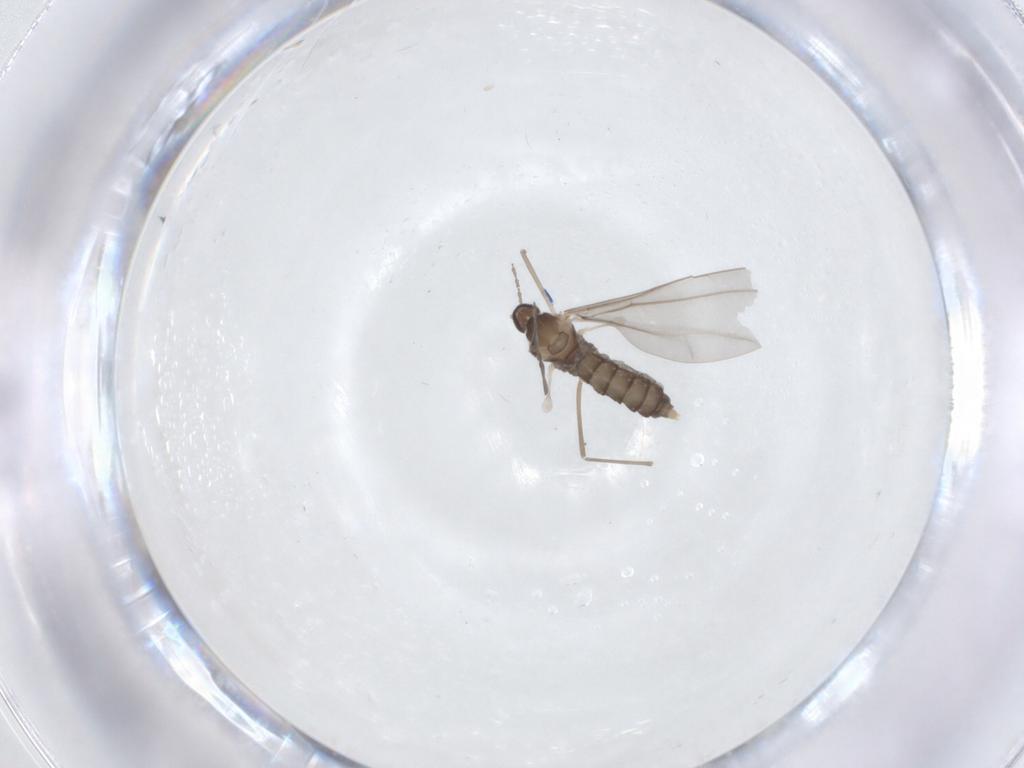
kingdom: Animalia
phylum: Arthropoda
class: Insecta
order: Diptera
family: Cecidomyiidae
